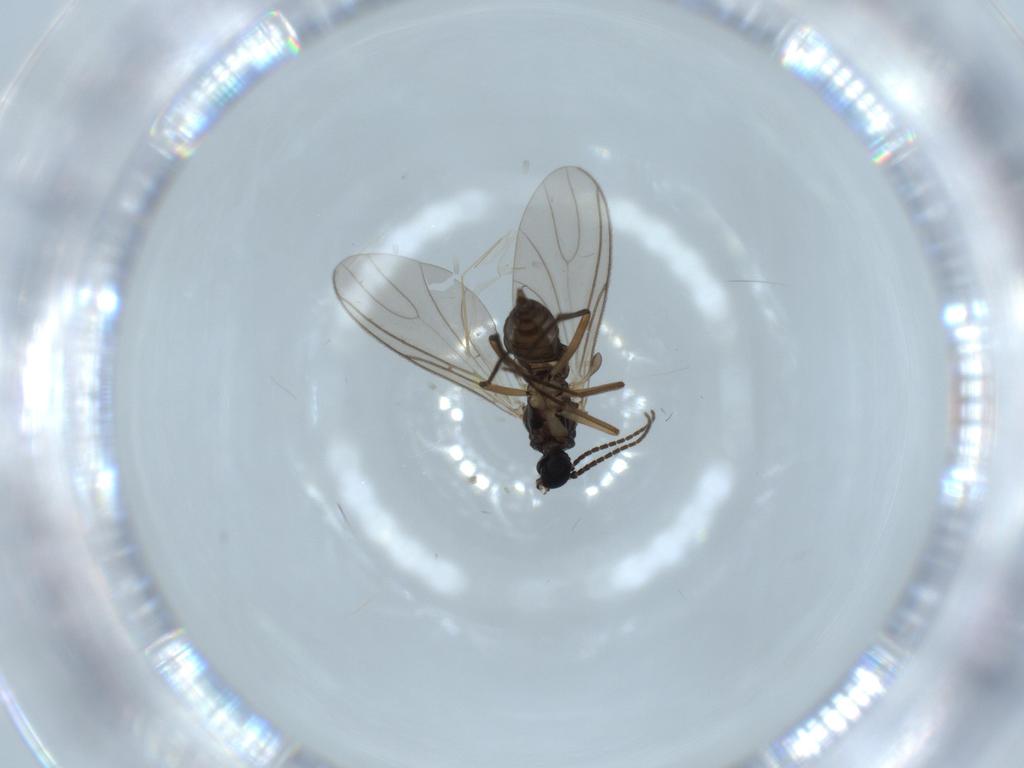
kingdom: Animalia
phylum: Arthropoda
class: Insecta
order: Diptera
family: Sciaridae
